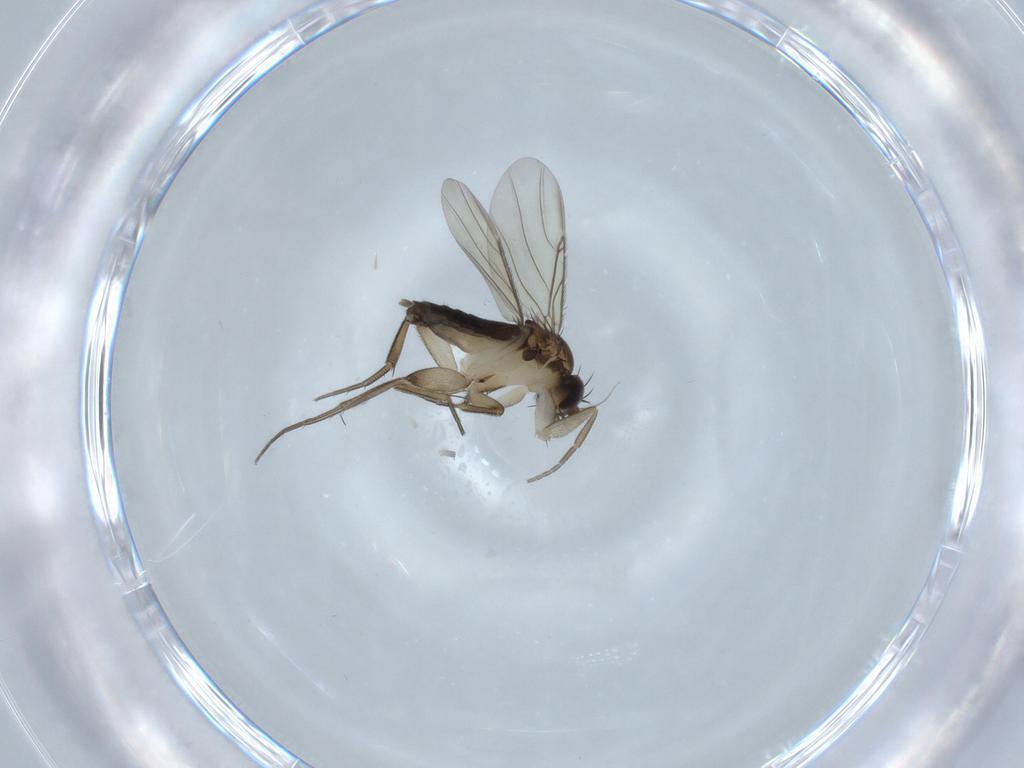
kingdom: Animalia
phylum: Arthropoda
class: Insecta
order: Diptera
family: Phoridae
